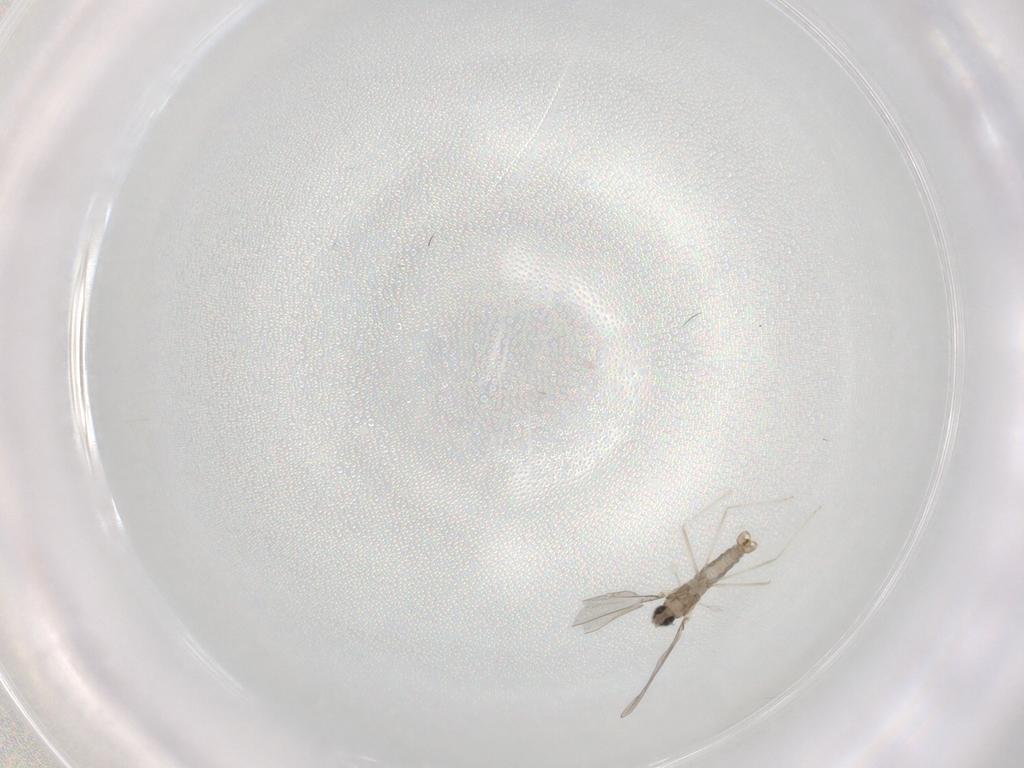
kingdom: Animalia
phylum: Arthropoda
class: Insecta
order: Diptera
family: Cecidomyiidae
